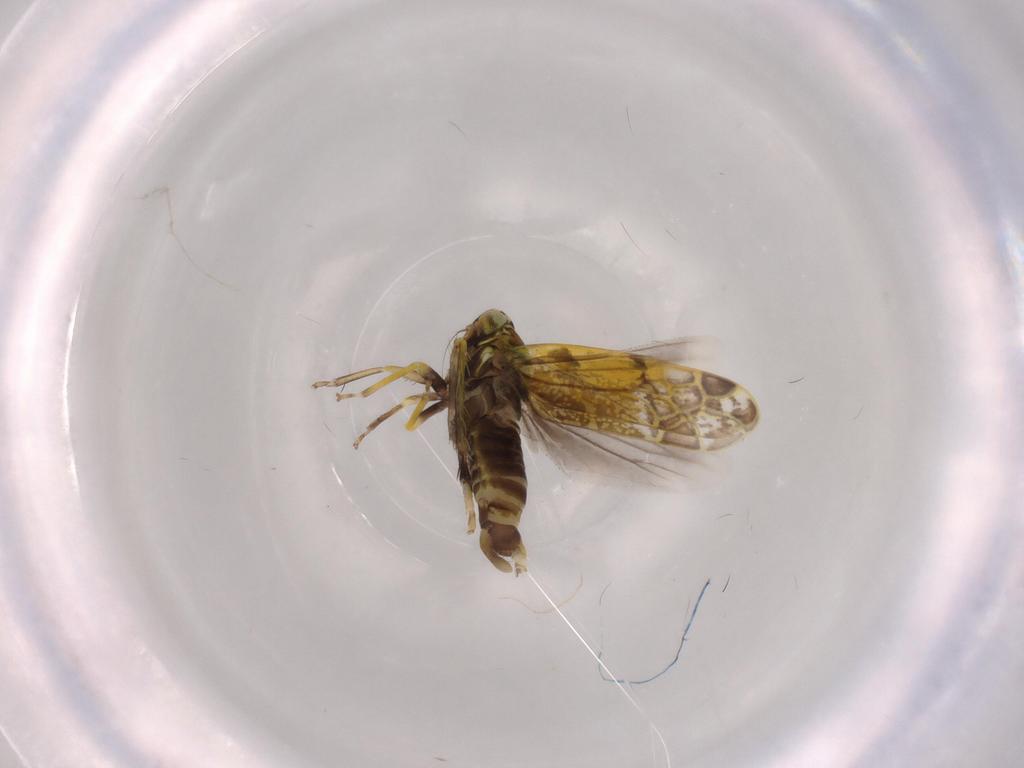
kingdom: Animalia
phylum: Arthropoda
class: Insecta
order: Hemiptera
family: Cicadellidae
